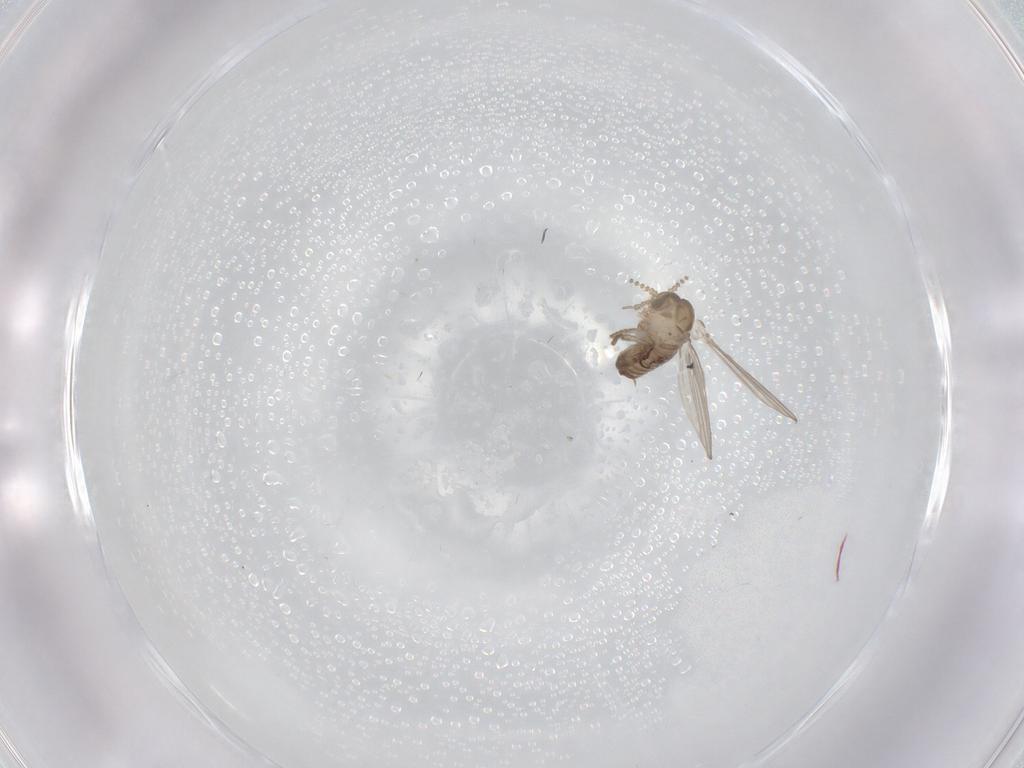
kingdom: Animalia
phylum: Arthropoda
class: Insecta
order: Diptera
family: Psychodidae
